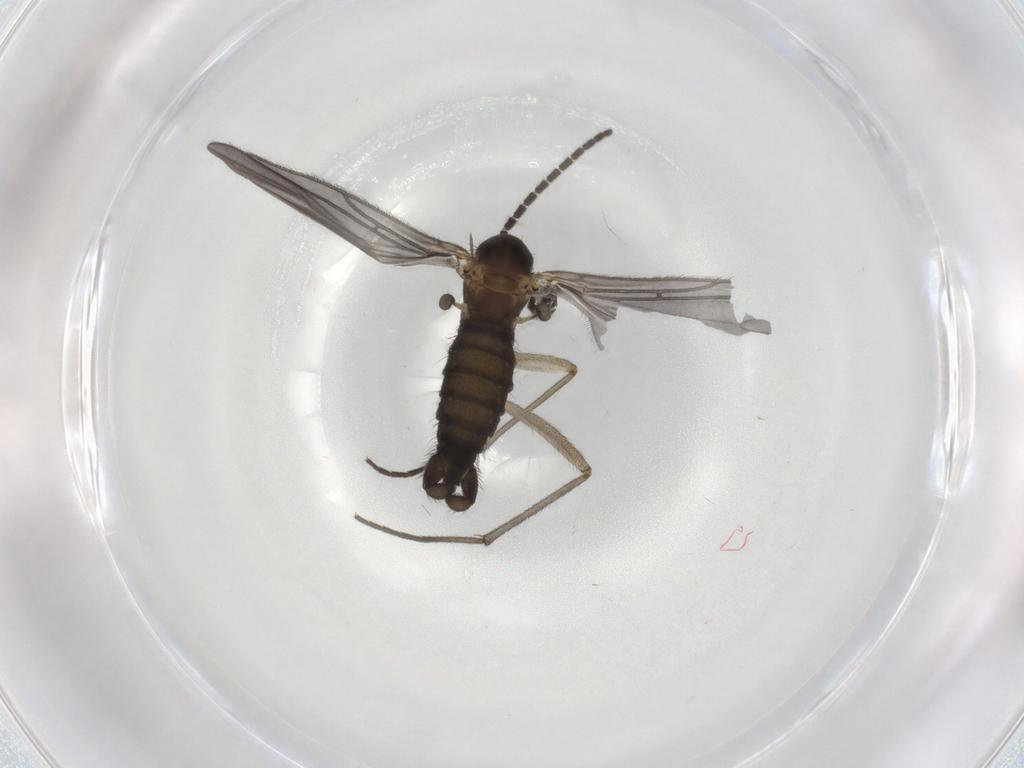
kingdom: Animalia
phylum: Arthropoda
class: Insecta
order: Diptera
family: Sciaridae
